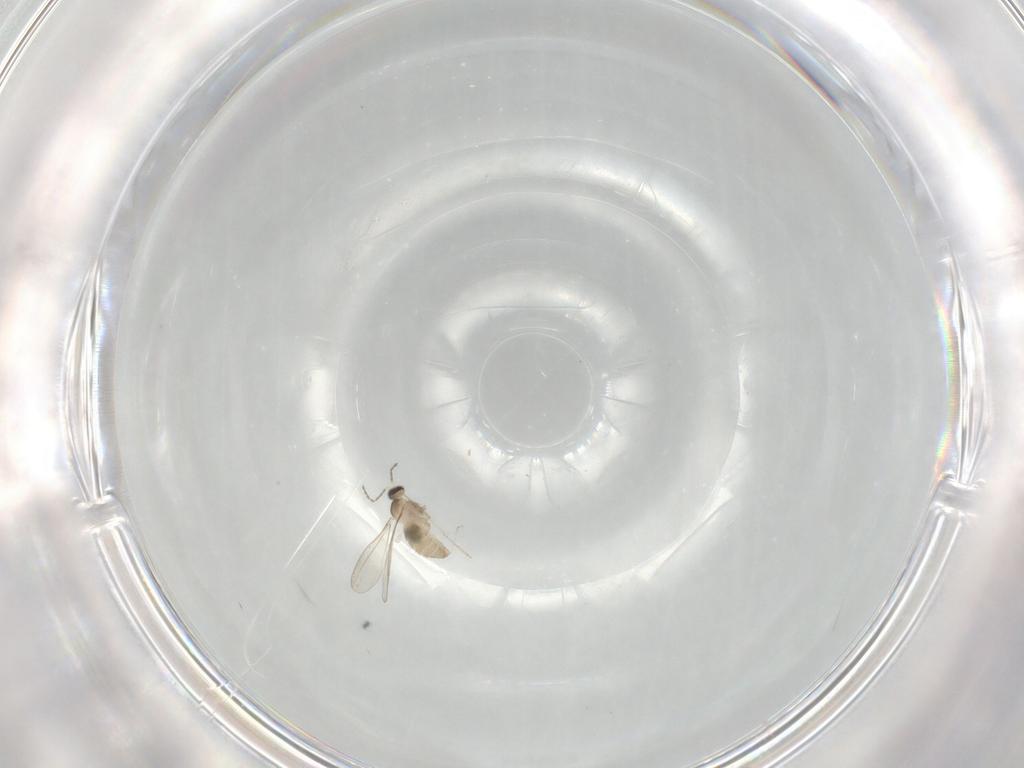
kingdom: Animalia
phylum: Arthropoda
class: Insecta
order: Diptera
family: Cecidomyiidae
